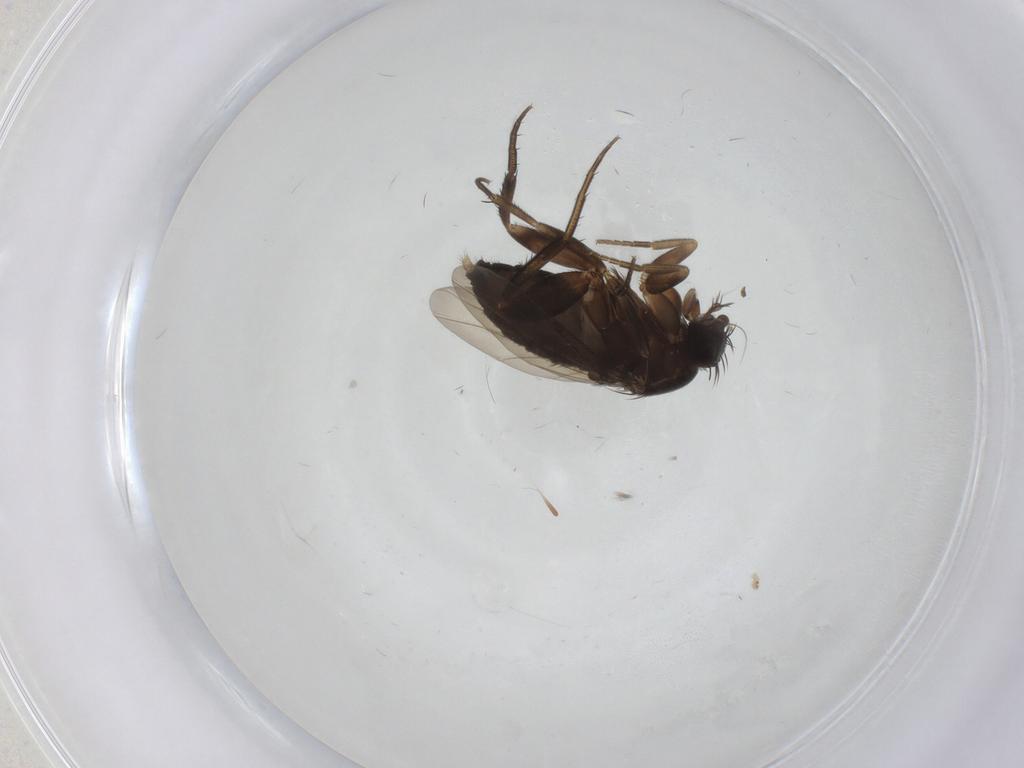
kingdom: Animalia
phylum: Arthropoda
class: Insecta
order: Diptera
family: Phoridae
